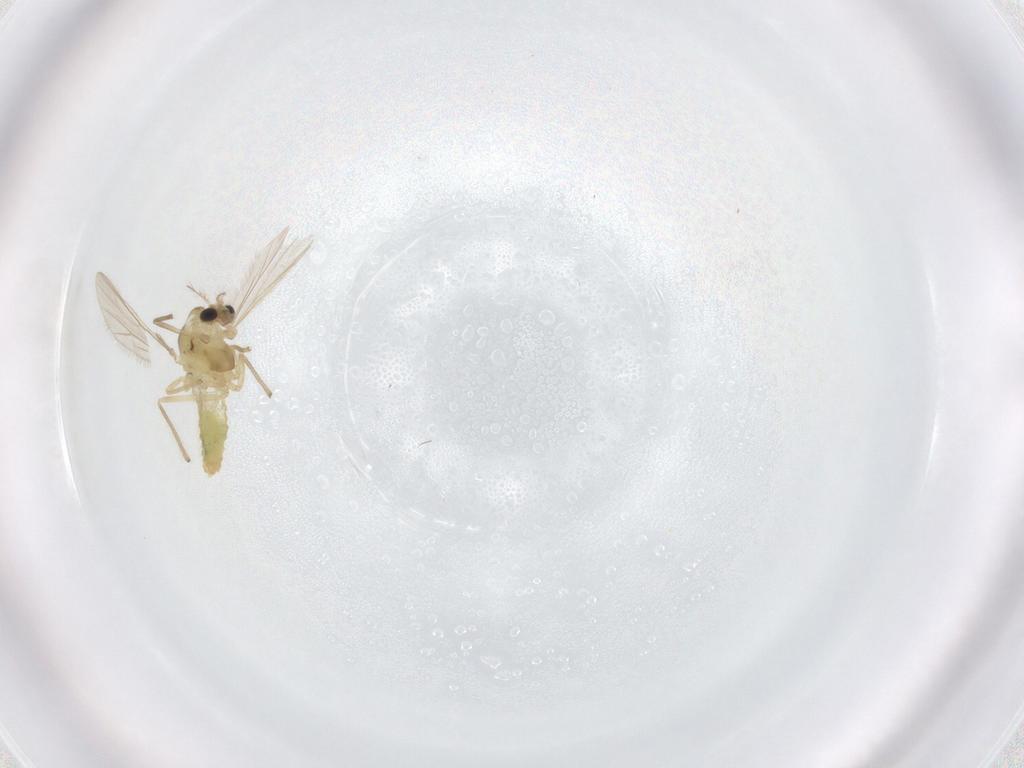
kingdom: Animalia
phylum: Arthropoda
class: Insecta
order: Diptera
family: Chironomidae
